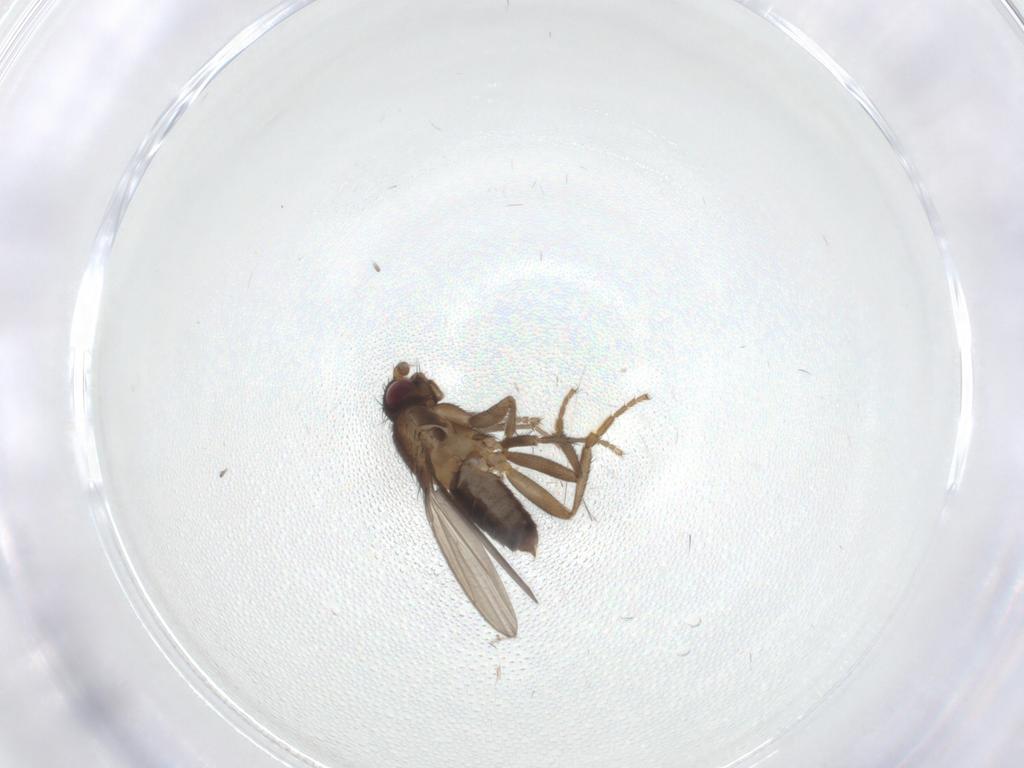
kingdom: Animalia
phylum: Arthropoda
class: Insecta
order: Diptera
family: Sphaeroceridae
